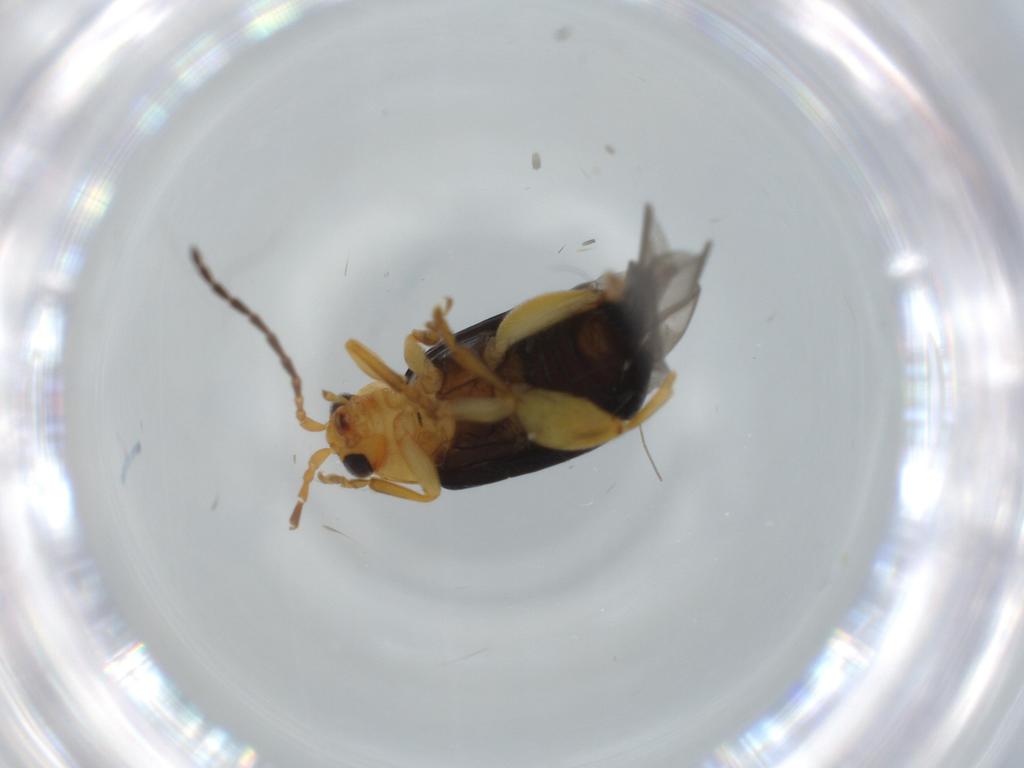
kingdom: Animalia
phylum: Arthropoda
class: Insecta
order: Coleoptera
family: Chrysomelidae
